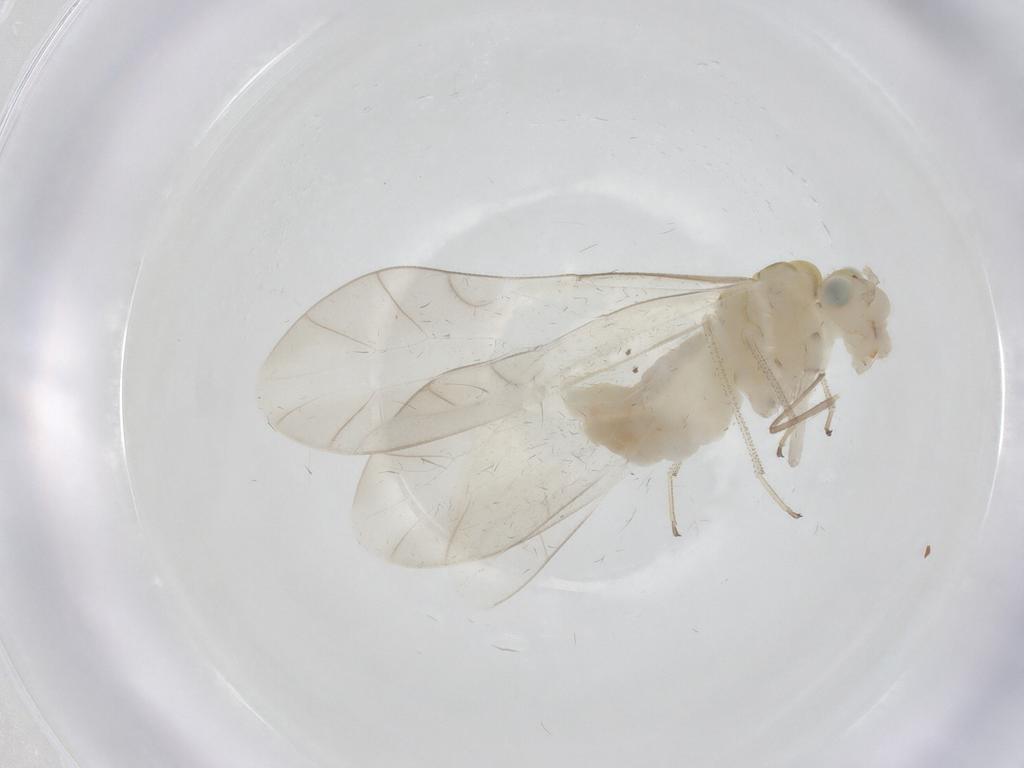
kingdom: Animalia
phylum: Arthropoda
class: Insecta
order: Psocodea
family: Caeciliusidae
